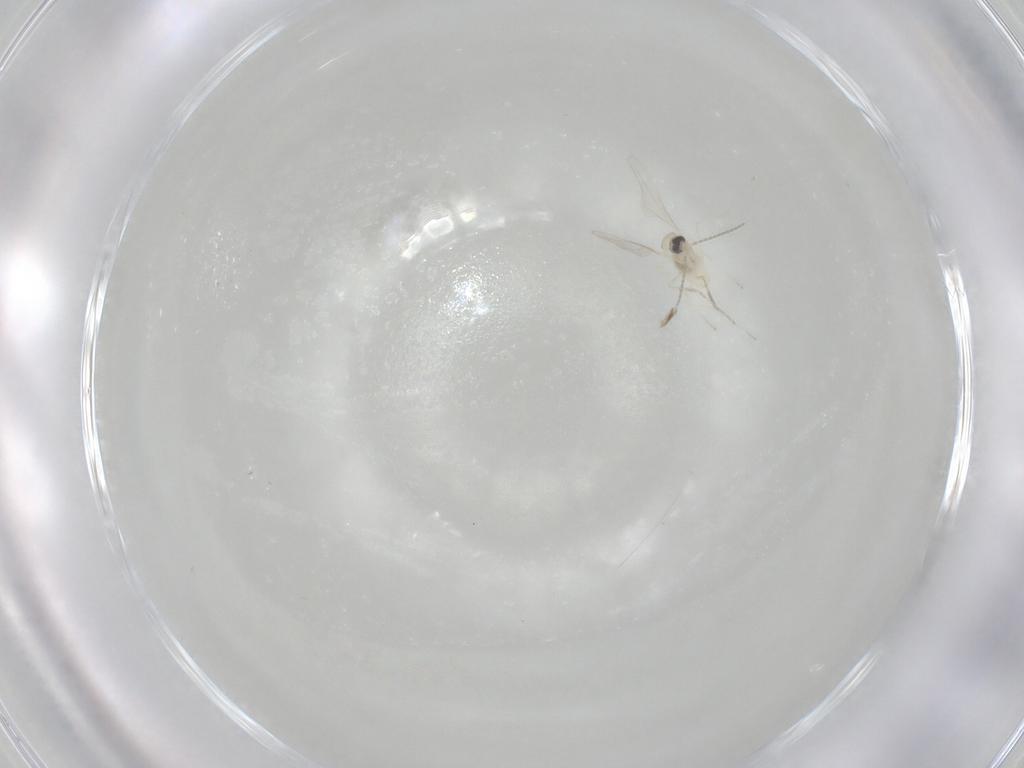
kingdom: Animalia
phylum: Arthropoda
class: Insecta
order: Diptera
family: Cecidomyiidae
